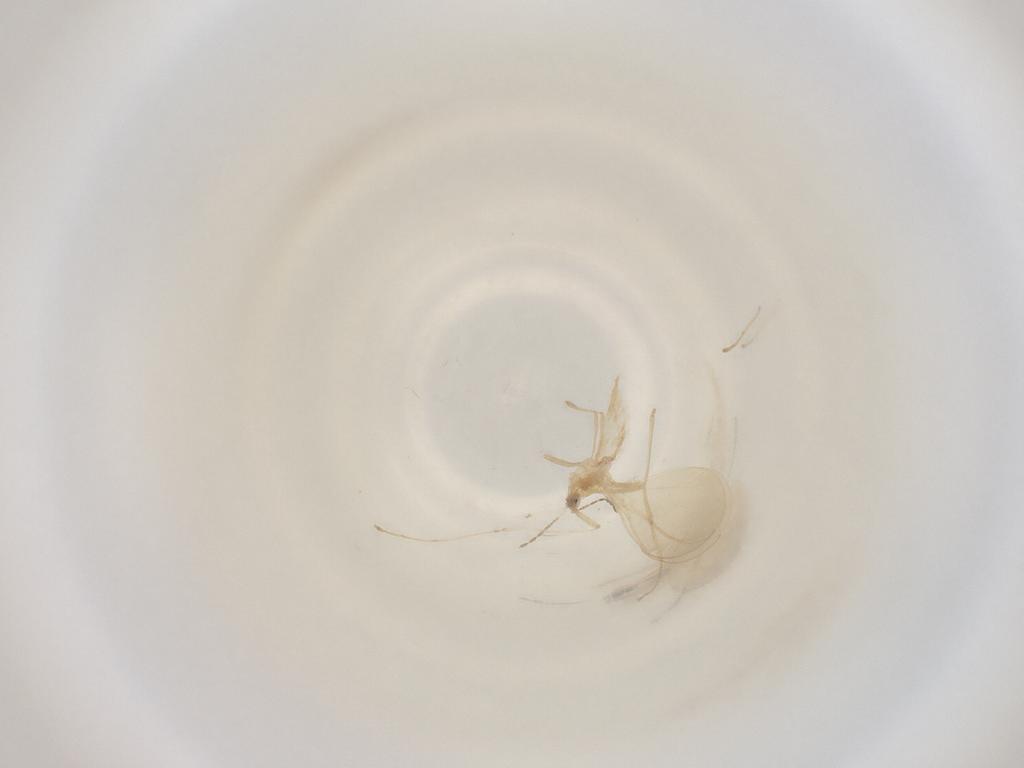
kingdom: Animalia
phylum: Arthropoda
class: Insecta
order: Diptera
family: Cecidomyiidae
